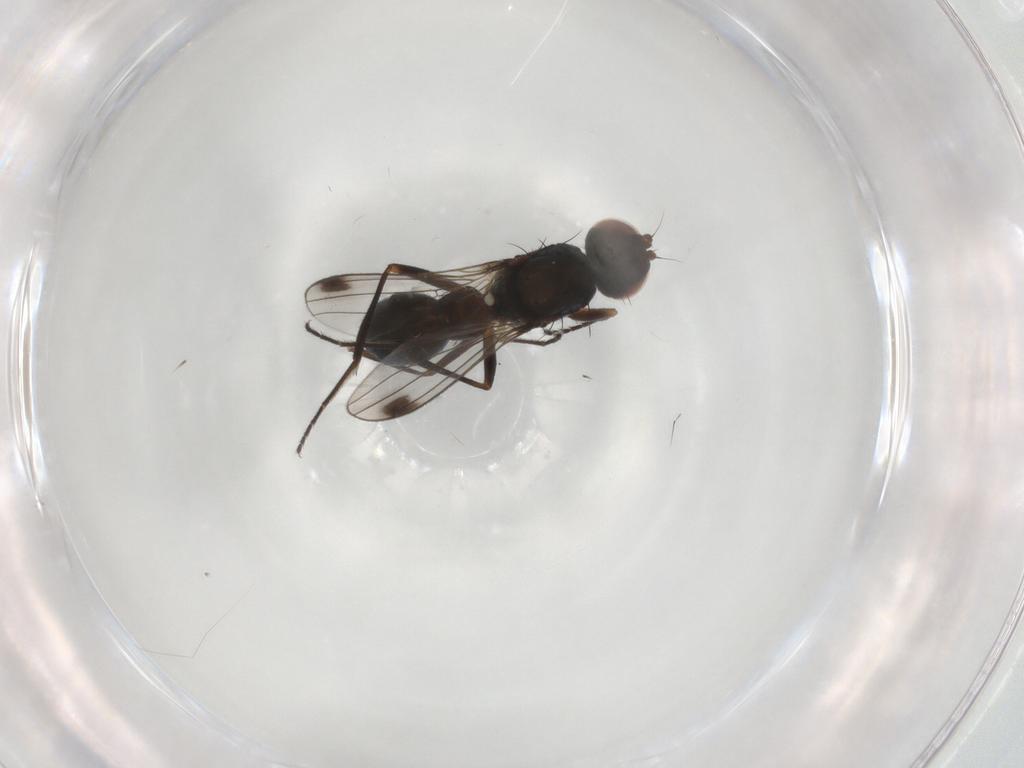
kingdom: Animalia
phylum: Arthropoda
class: Insecta
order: Diptera
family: Sepsidae
